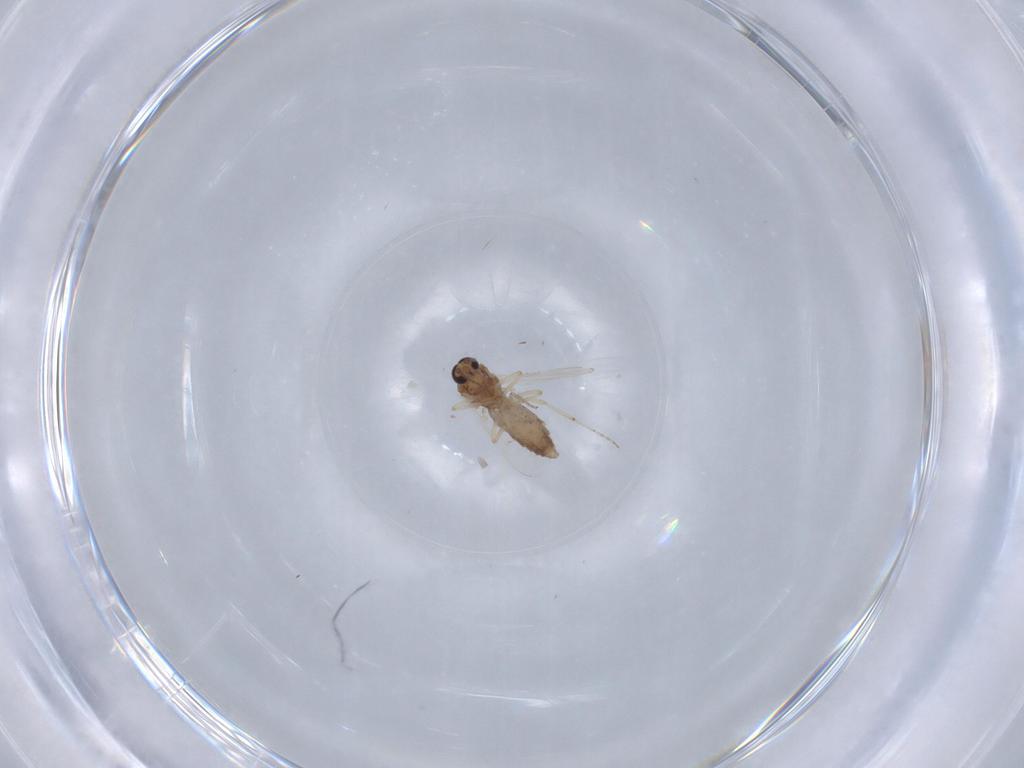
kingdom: Animalia
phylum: Arthropoda
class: Insecta
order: Diptera
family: Ceratopogonidae
